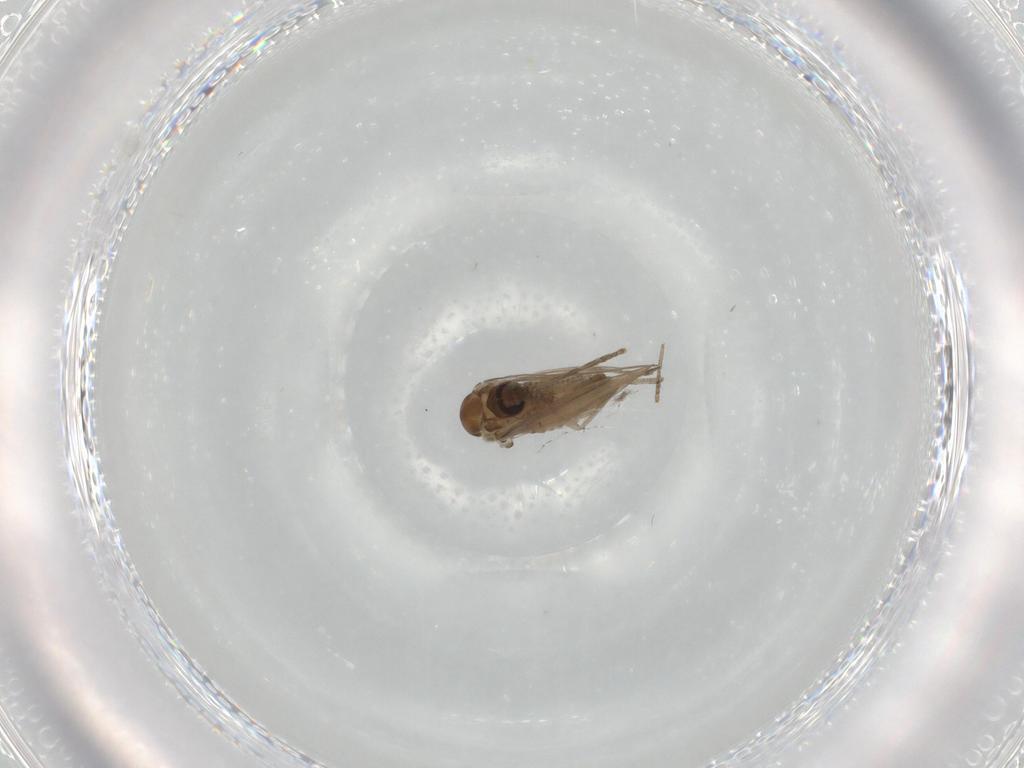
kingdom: Animalia
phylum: Arthropoda
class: Insecta
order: Diptera
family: Psychodidae
